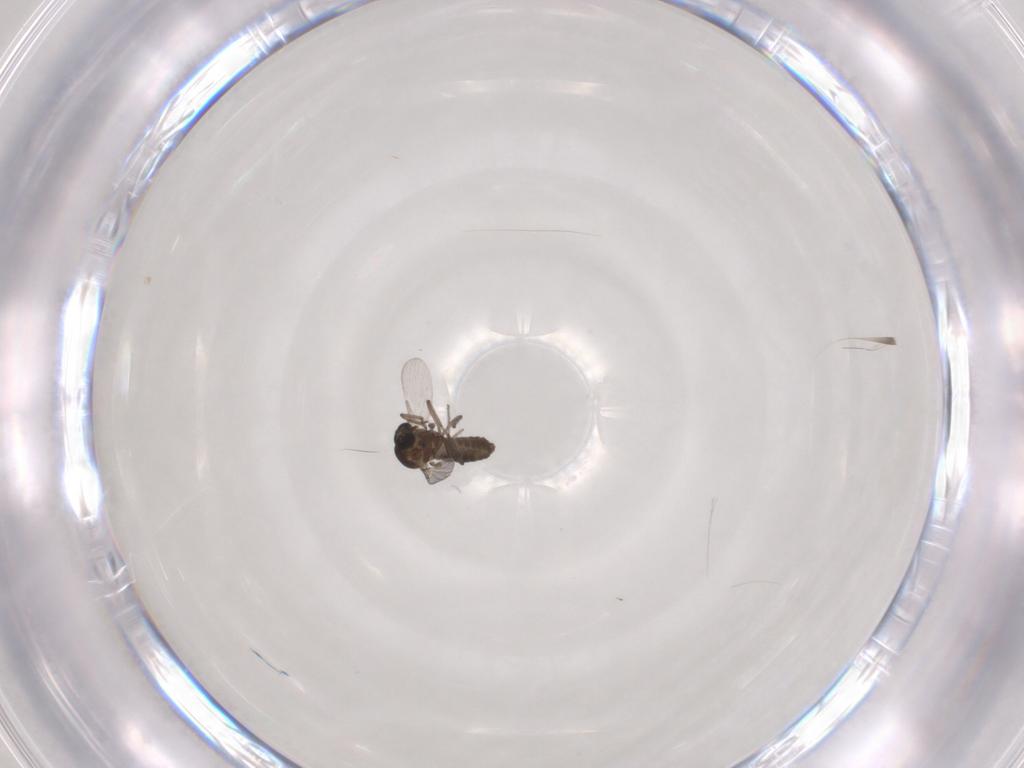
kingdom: Animalia
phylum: Arthropoda
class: Insecta
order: Diptera
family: Ceratopogonidae
